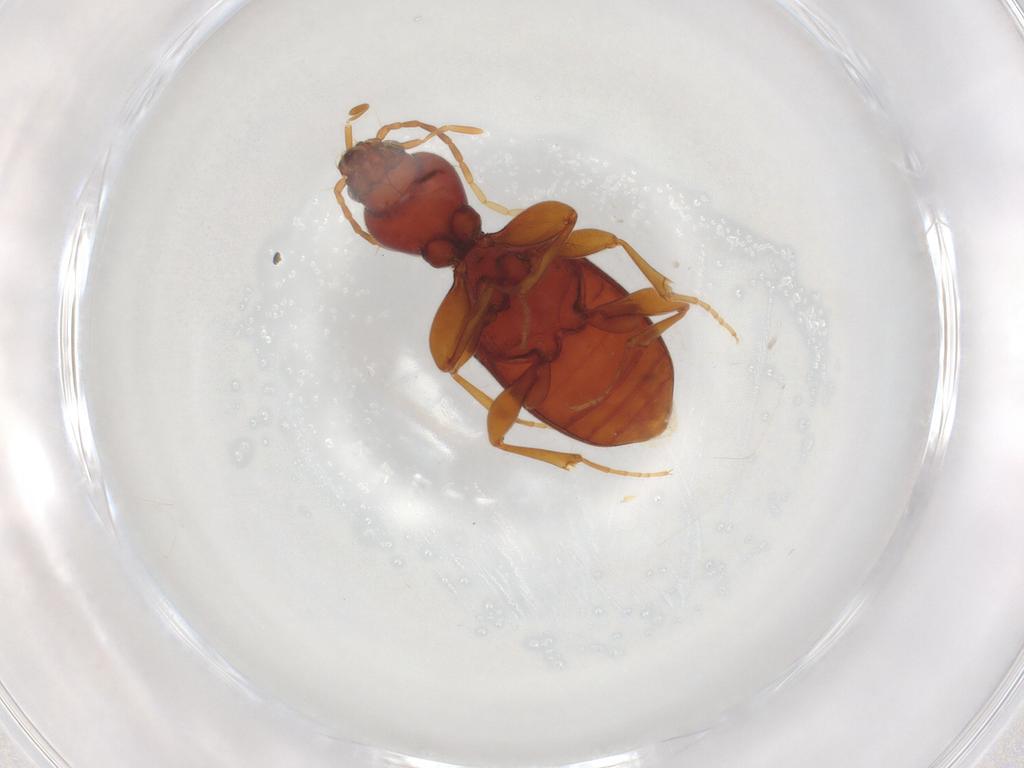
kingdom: Animalia
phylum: Arthropoda
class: Insecta
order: Coleoptera
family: Carabidae
